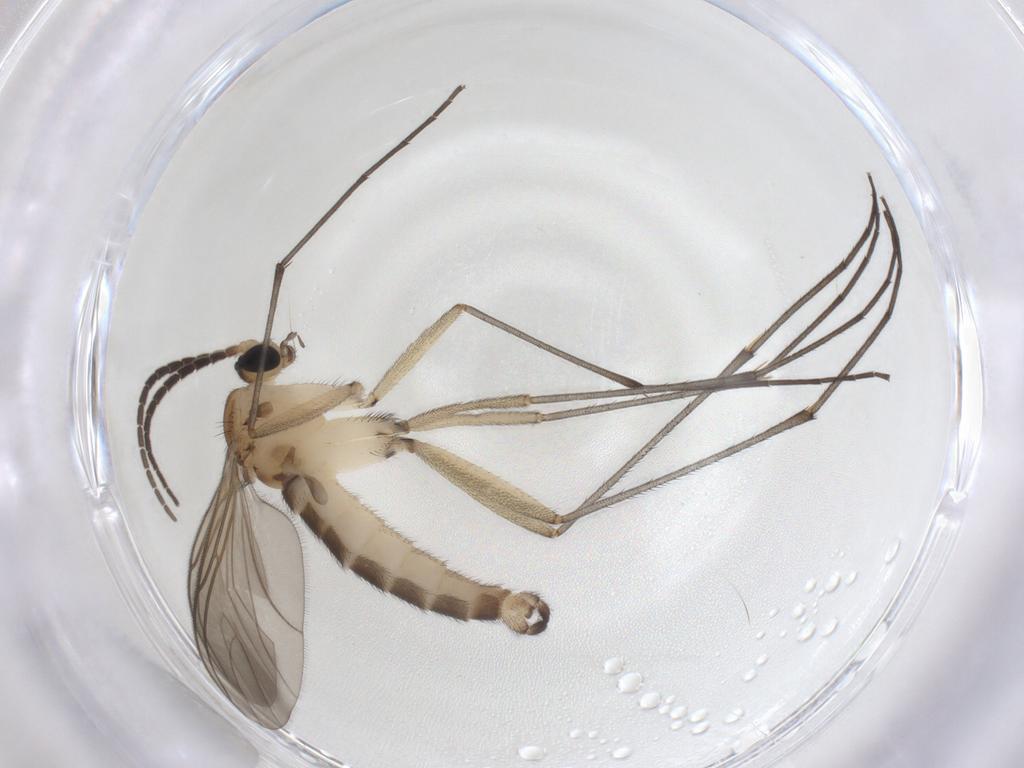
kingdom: Animalia
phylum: Arthropoda
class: Insecta
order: Diptera
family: Sciaridae
